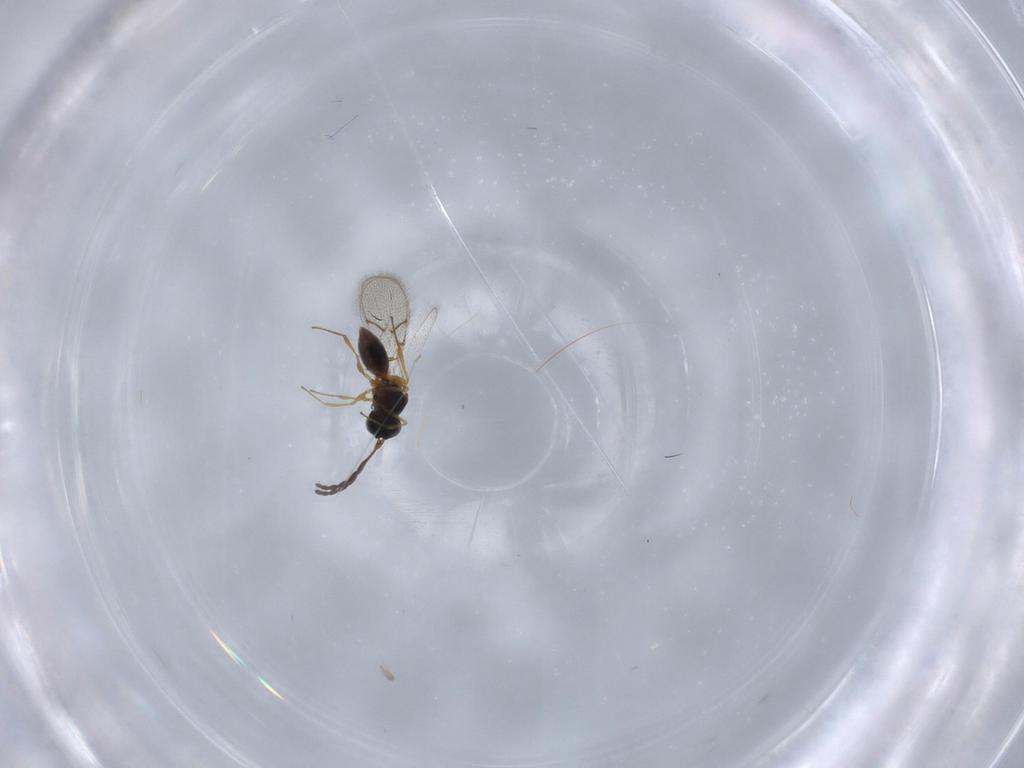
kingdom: Animalia
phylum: Arthropoda
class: Insecta
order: Hymenoptera
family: Figitidae
